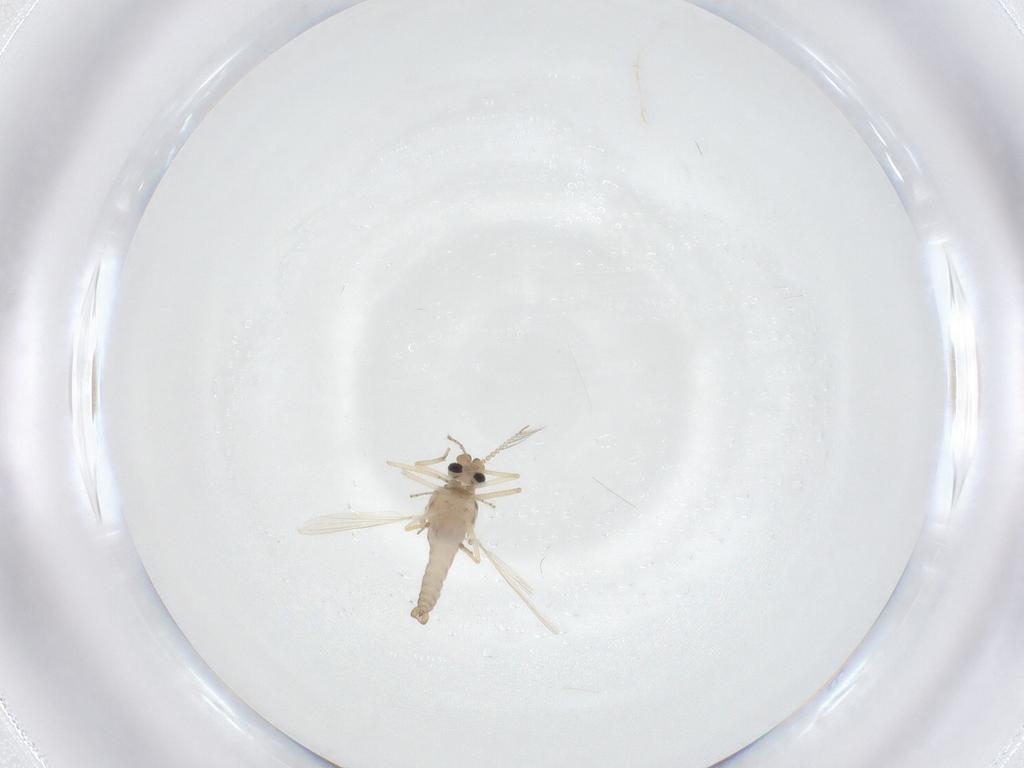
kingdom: Animalia
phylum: Arthropoda
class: Insecta
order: Diptera
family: Ceratopogonidae
